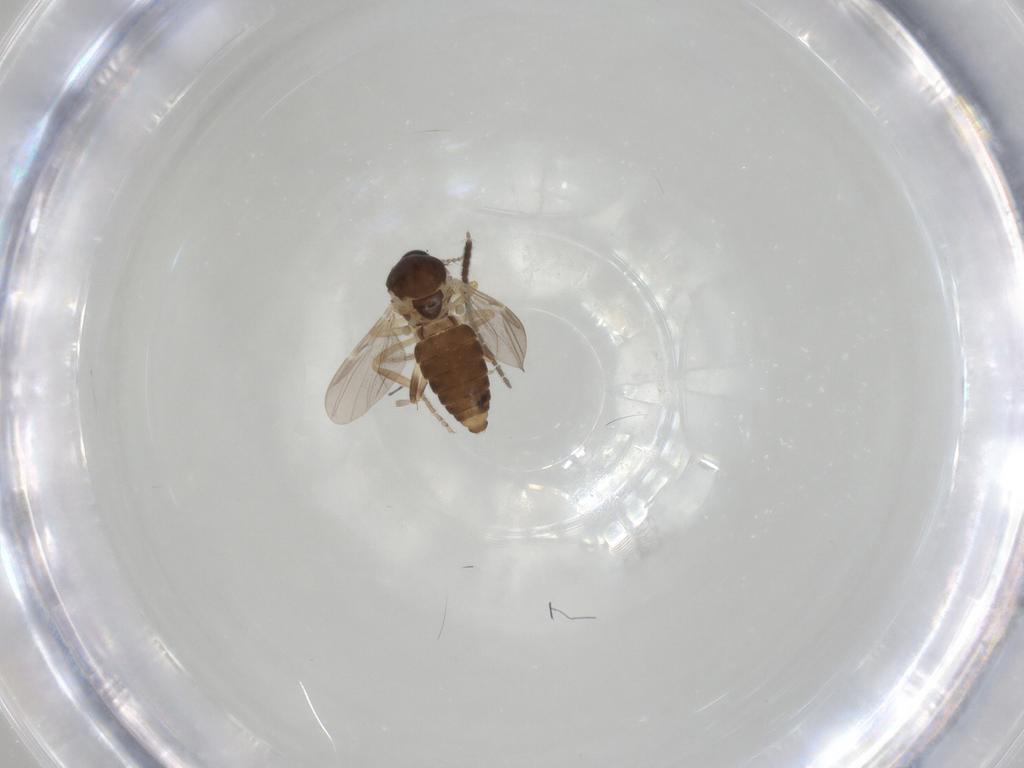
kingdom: Animalia
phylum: Arthropoda
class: Insecta
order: Diptera
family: Ceratopogonidae
